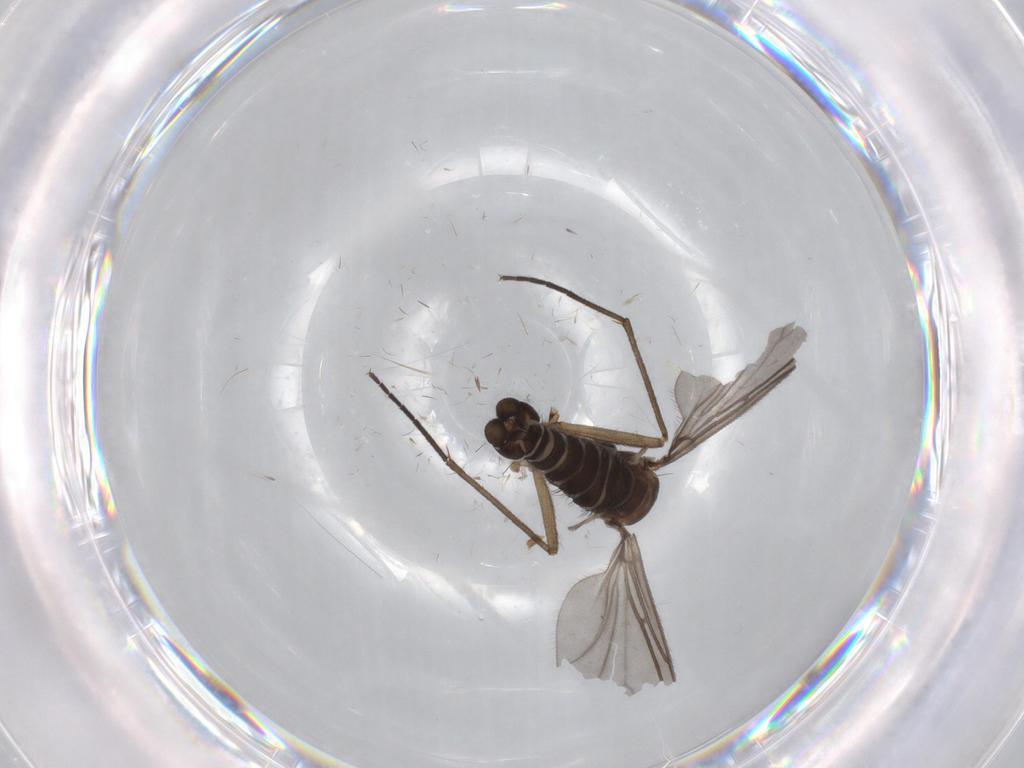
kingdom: Animalia
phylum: Arthropoda
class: Insecta
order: Diptera
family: Sciaridae
